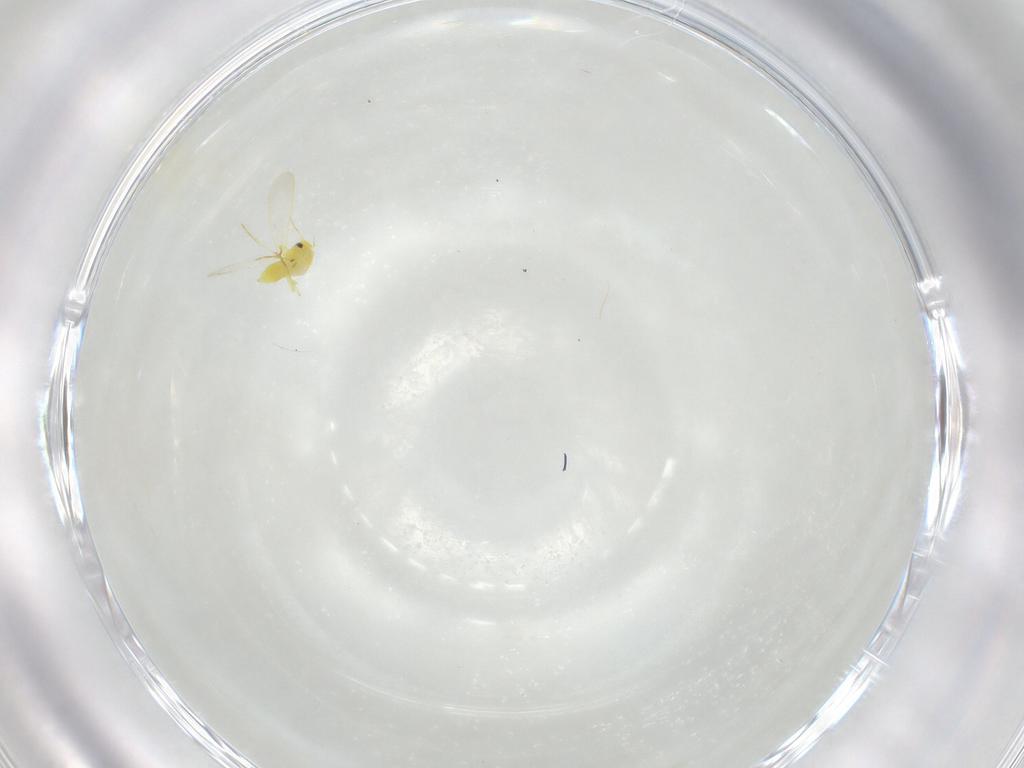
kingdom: Animalia
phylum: Arthropoda
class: Insecta
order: Hemiptera
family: Aleyrodidae
